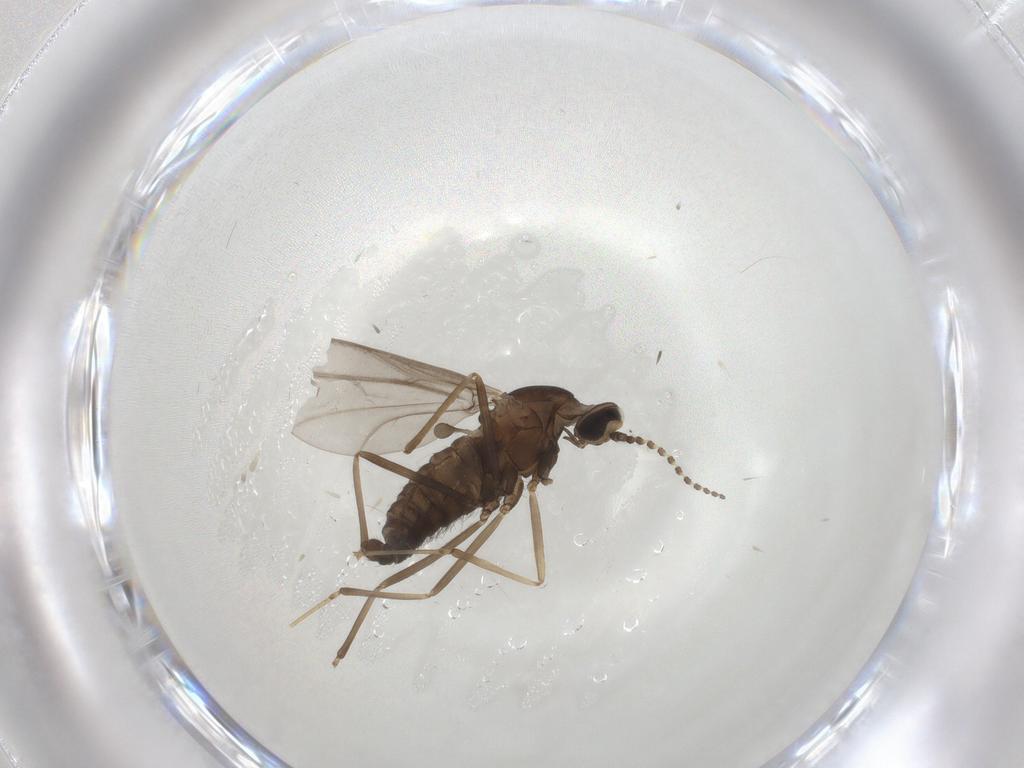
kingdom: Animalia
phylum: Arthropoda
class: Insecta
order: Diptera
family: Cecidomyiidae
